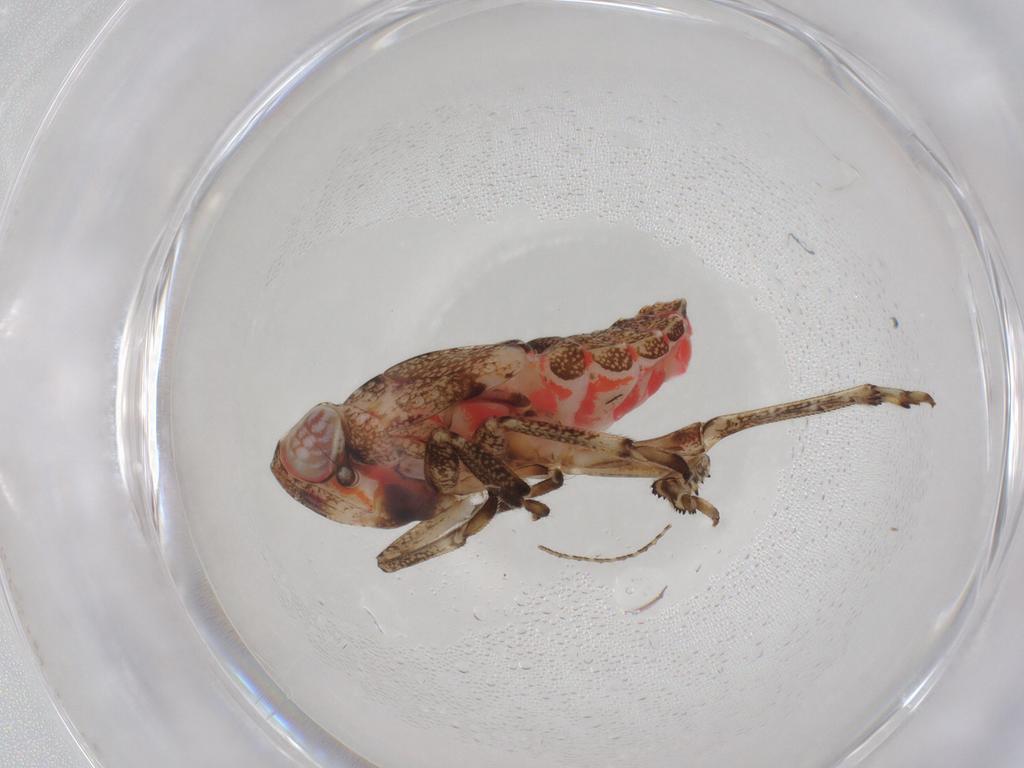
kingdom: Animalia
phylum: Arthropoda
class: Insecta
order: Hemiptera
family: Issidae
